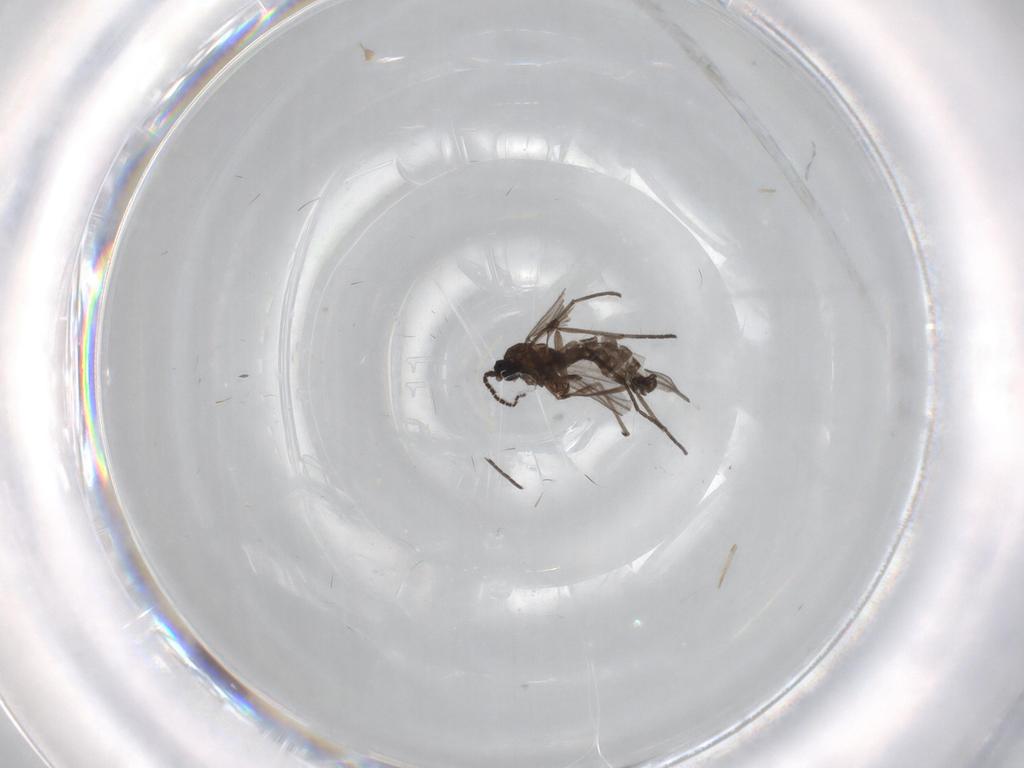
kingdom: Animalia
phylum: Arthropoda
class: Insecta
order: Diptera
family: Sciaridae
